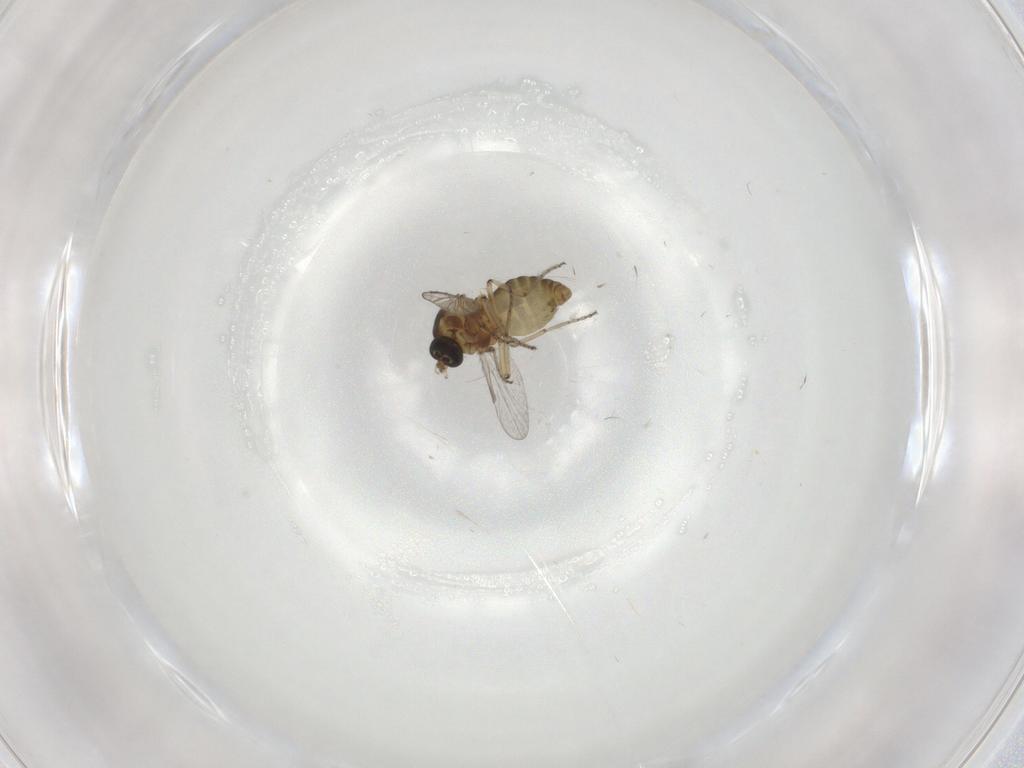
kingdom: Animalia
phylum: Arthropoda
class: Insecta
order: Diptera
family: Ceratopogonidae
